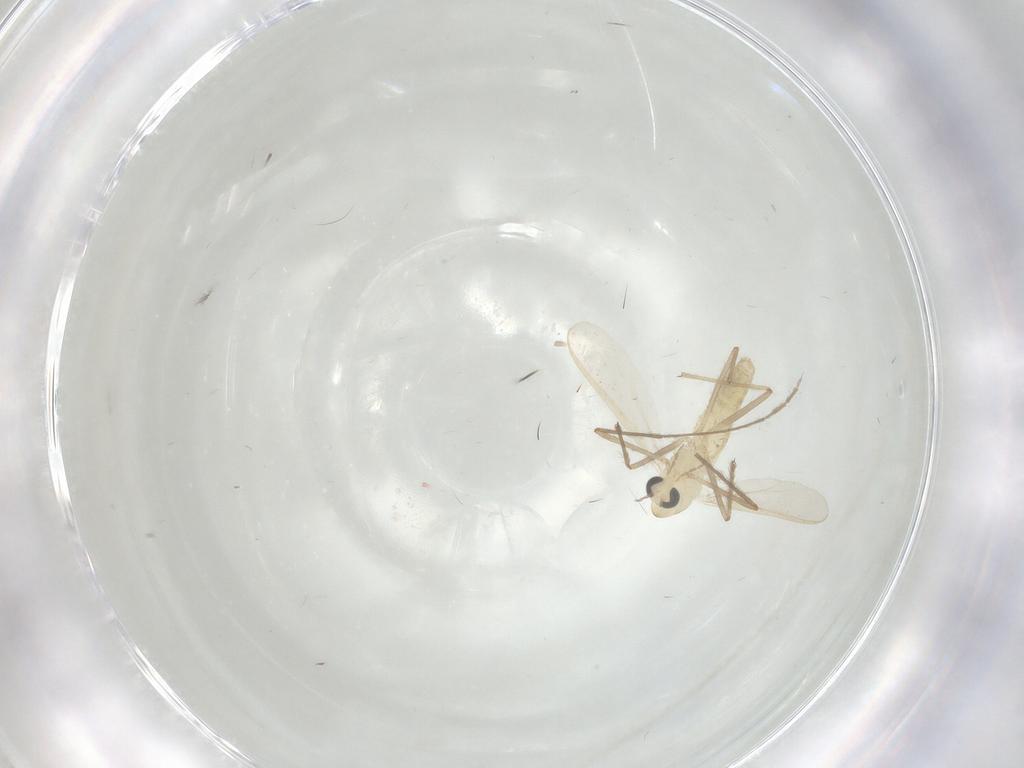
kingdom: Animalia
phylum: Arthropoda
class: Insecta
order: Diptera
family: Chironomidae
